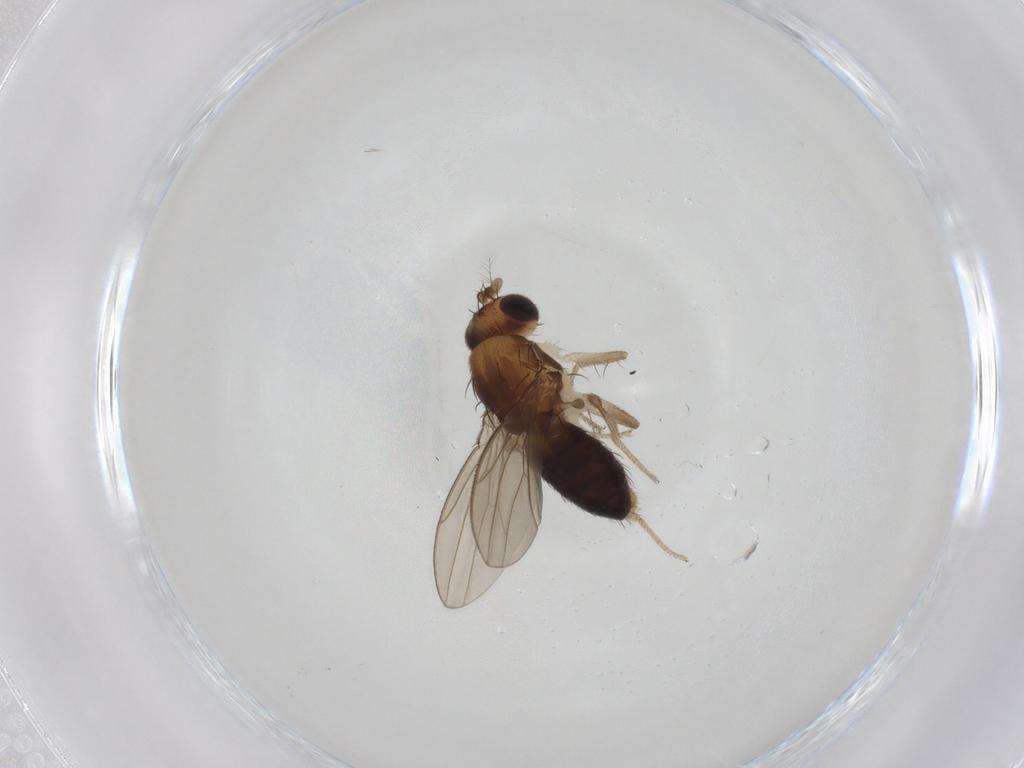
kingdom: Animalia
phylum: Arthropoda
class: Insecta
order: Diptera
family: Drosophilidae
